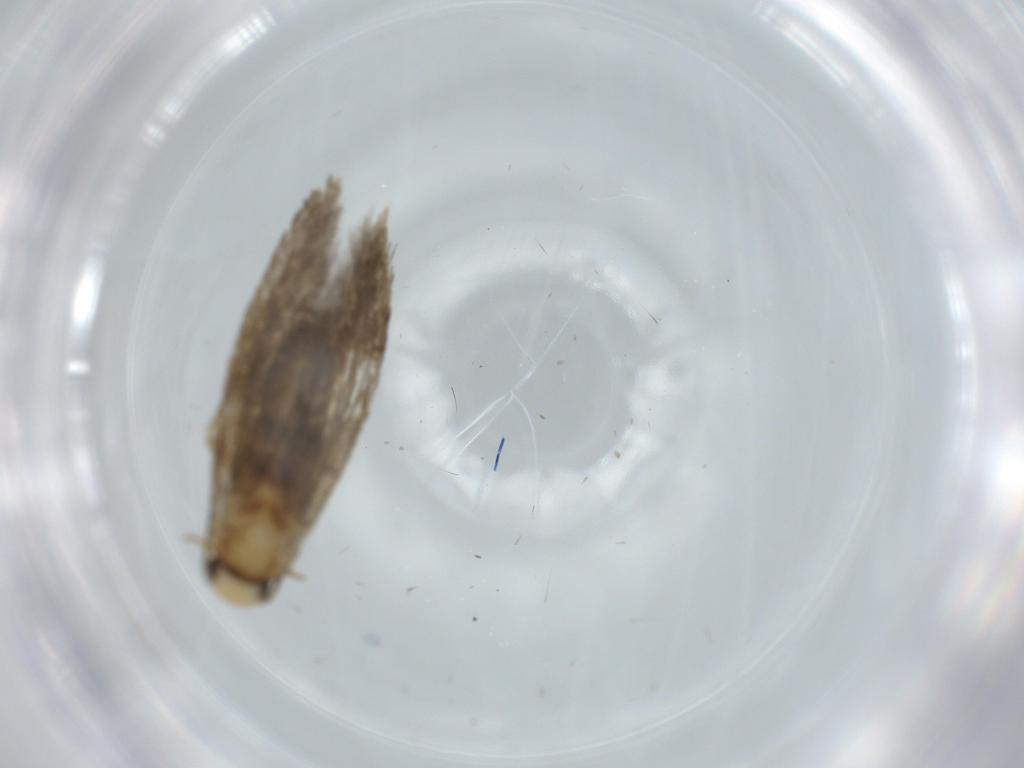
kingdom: Animalia
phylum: Arthropoda
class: Insecta
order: Lepidoptera
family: Tineidae
